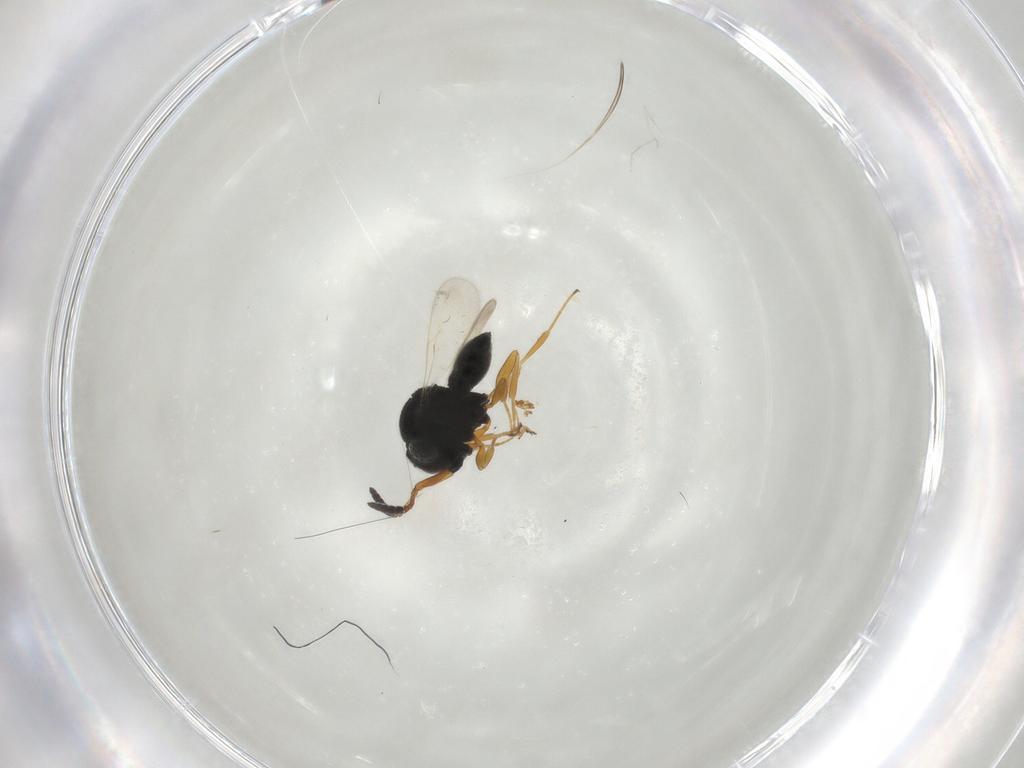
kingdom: Animalia
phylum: Arthropoda
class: Insecta
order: Hymenoptera
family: Scelionidae
